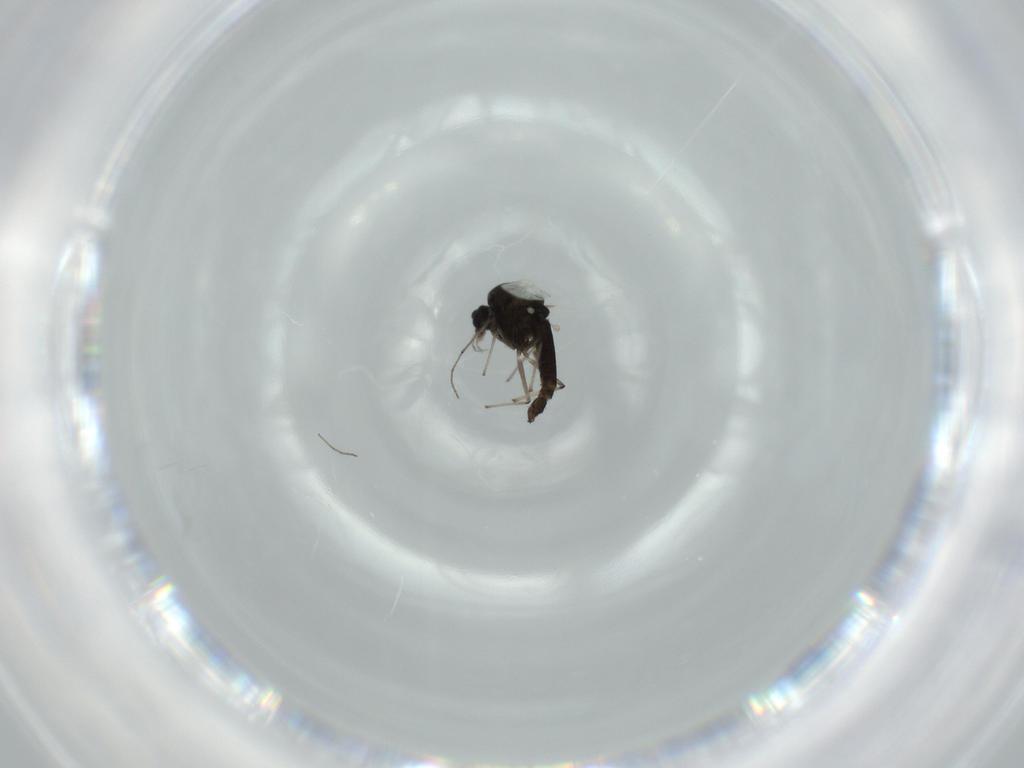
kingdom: Animalia
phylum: Arthropoda
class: Insecta
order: Diptera
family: Chironomidae
